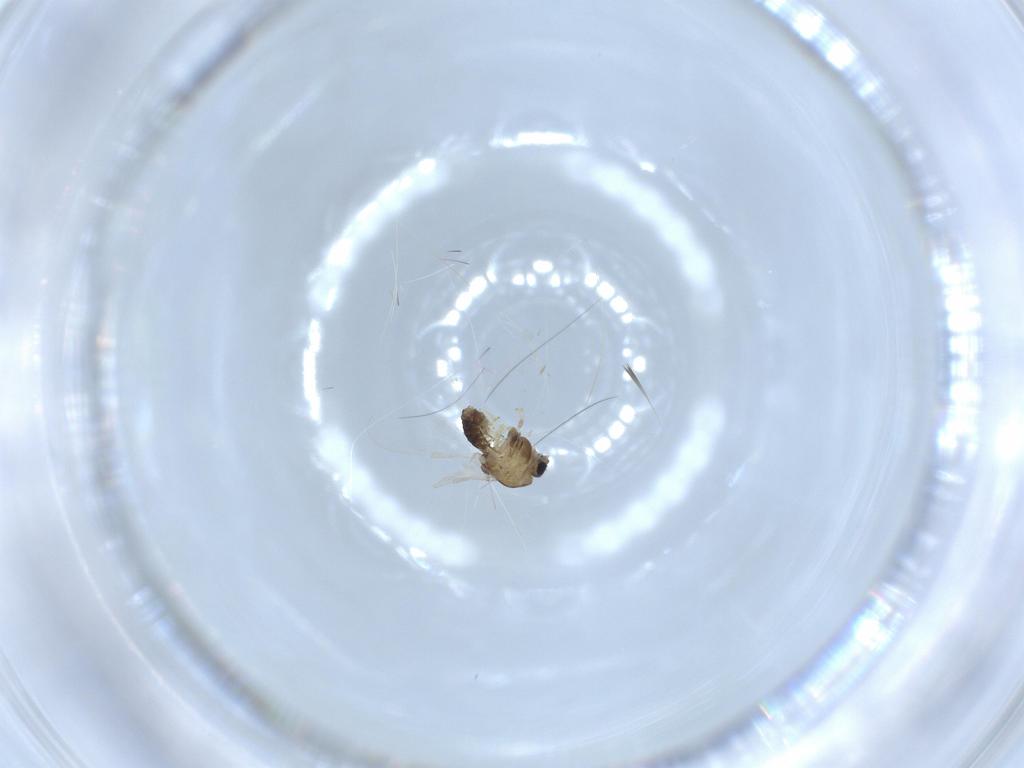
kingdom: Animalia
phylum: Arthropoda
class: Insecta
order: Diptera
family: Chironomidae
